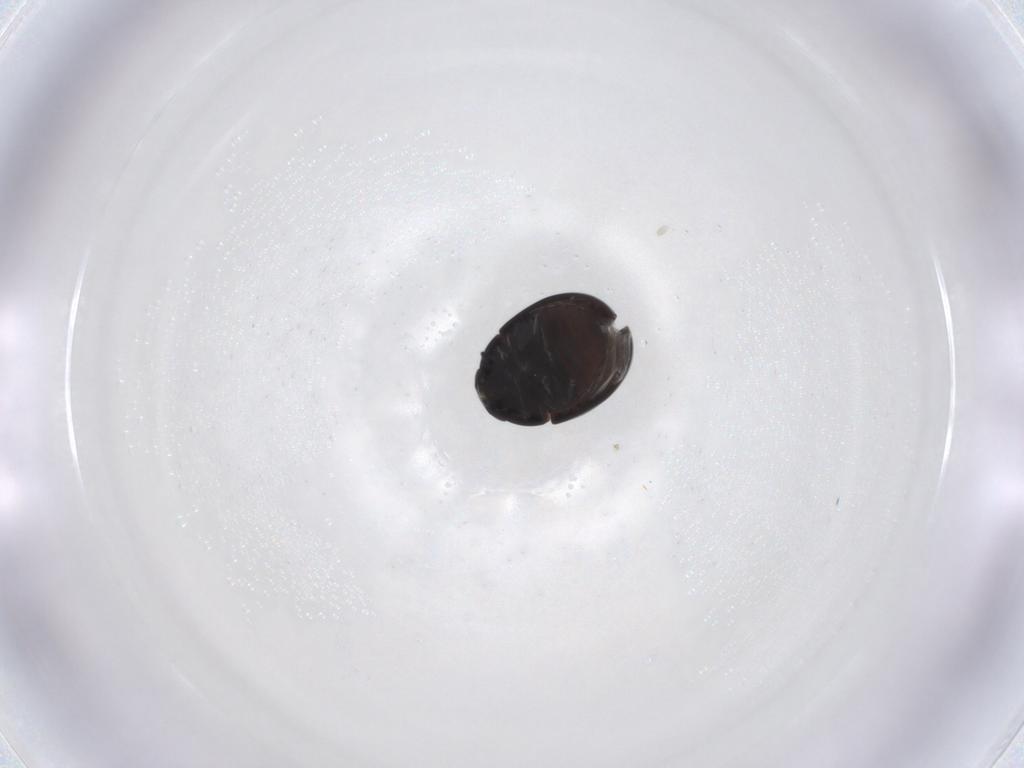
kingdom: Animalia
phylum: Arthropoda
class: Insecta
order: Coleoptera
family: Phalacridae
